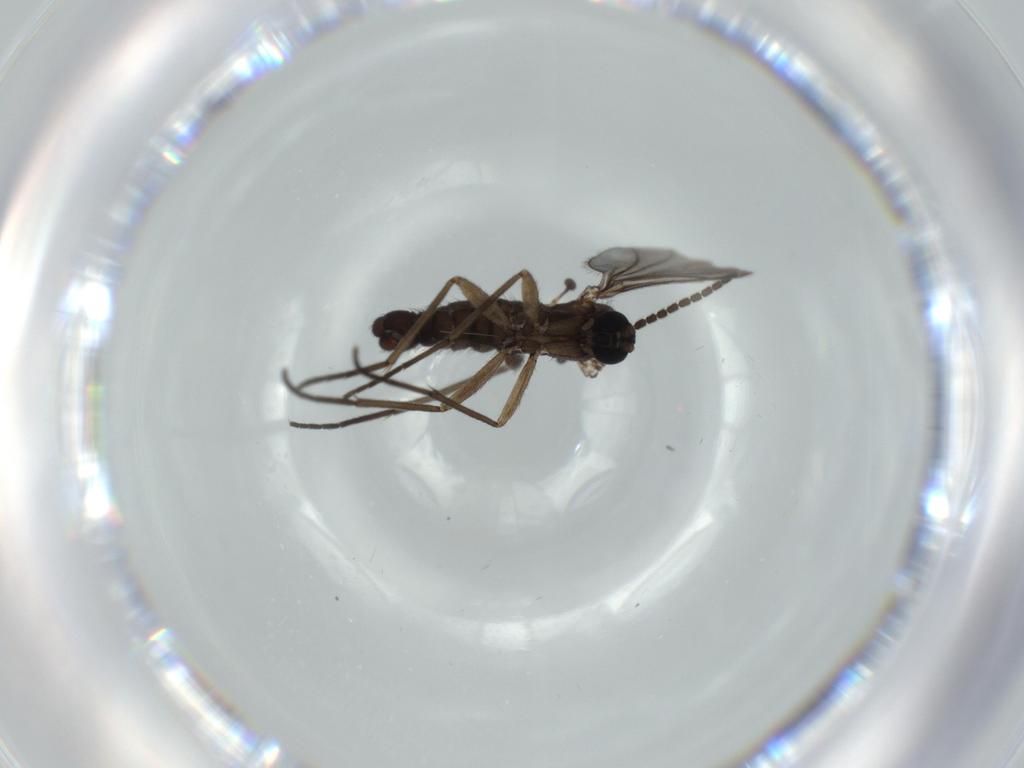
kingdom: Animalia
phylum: Arthropoda
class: Insecta
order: Diptera
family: Sciaridae
